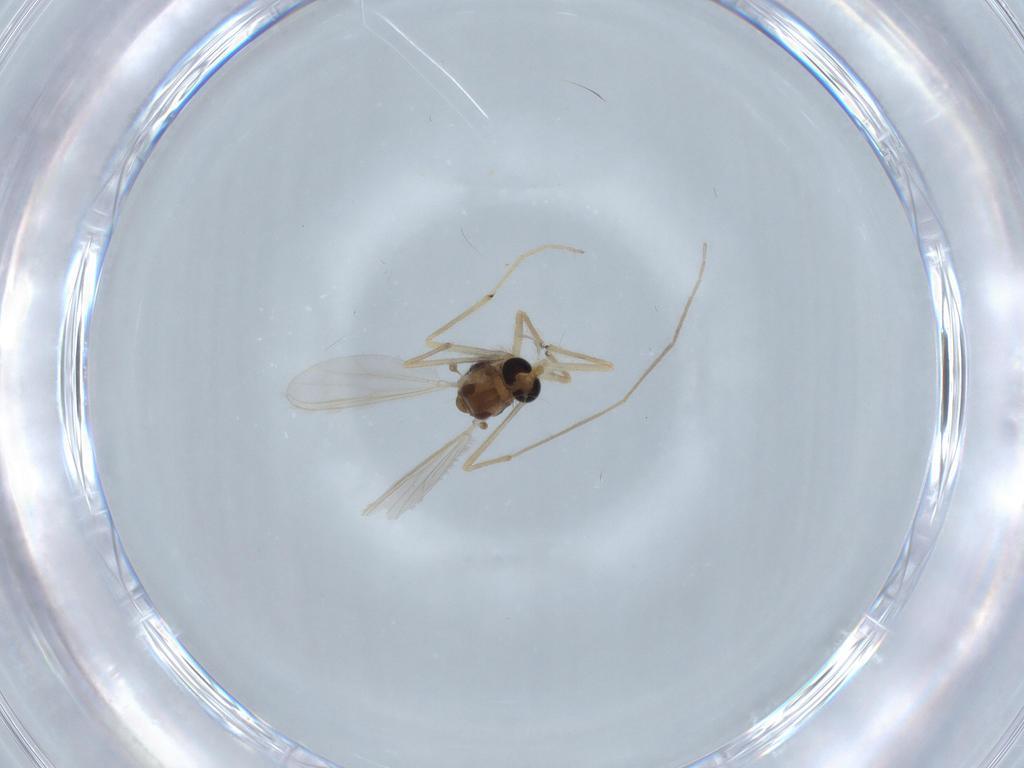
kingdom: Animalia
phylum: Arthropoda
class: Insecta
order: Diptera
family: Chironomidae
